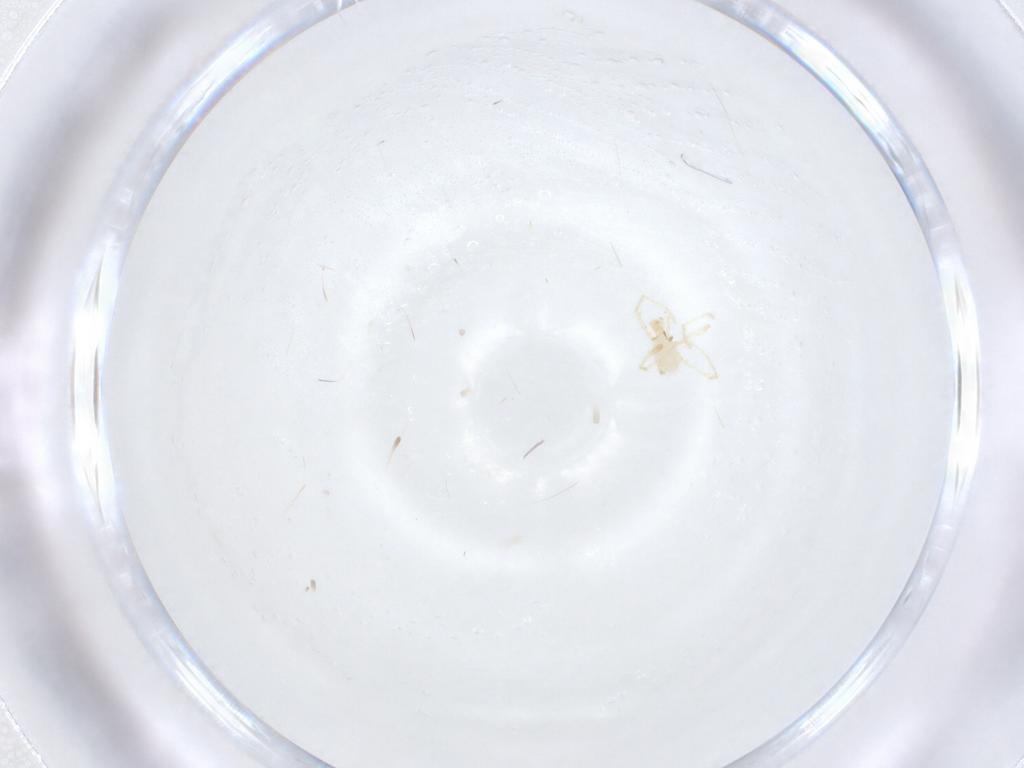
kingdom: Animalia
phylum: Arthropoda
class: Arachnida
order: Trombidiformes
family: Erythraeidae
